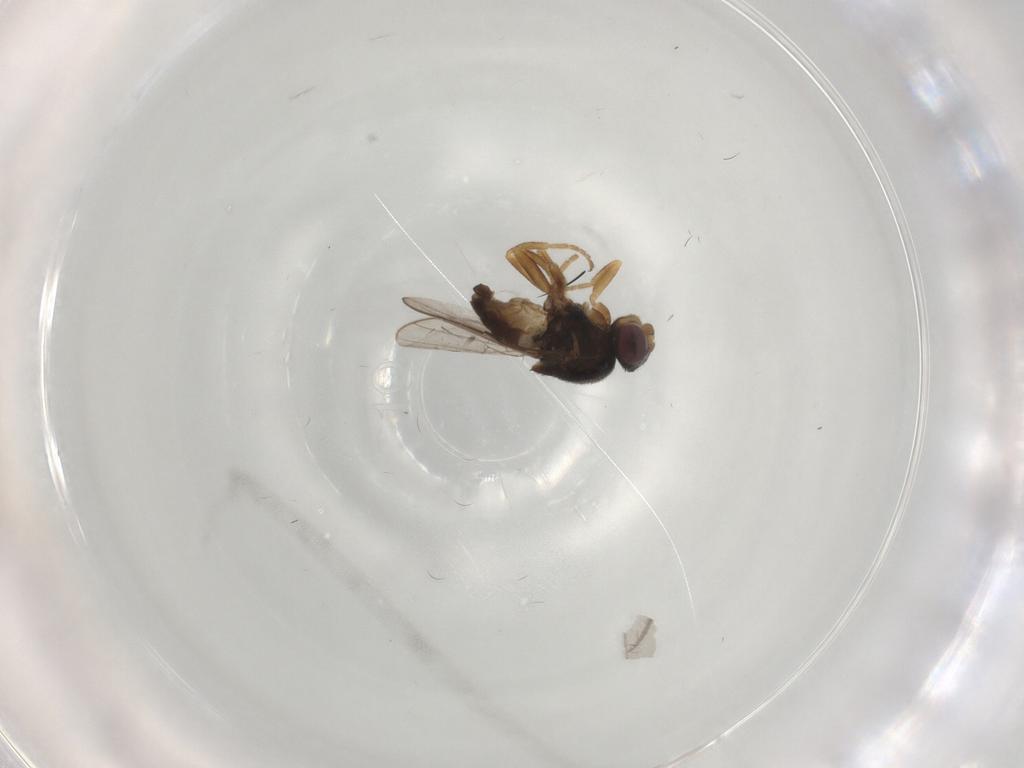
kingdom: Animalia
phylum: Arthropoda
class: Insecta
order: Diptera
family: Chloropidae
